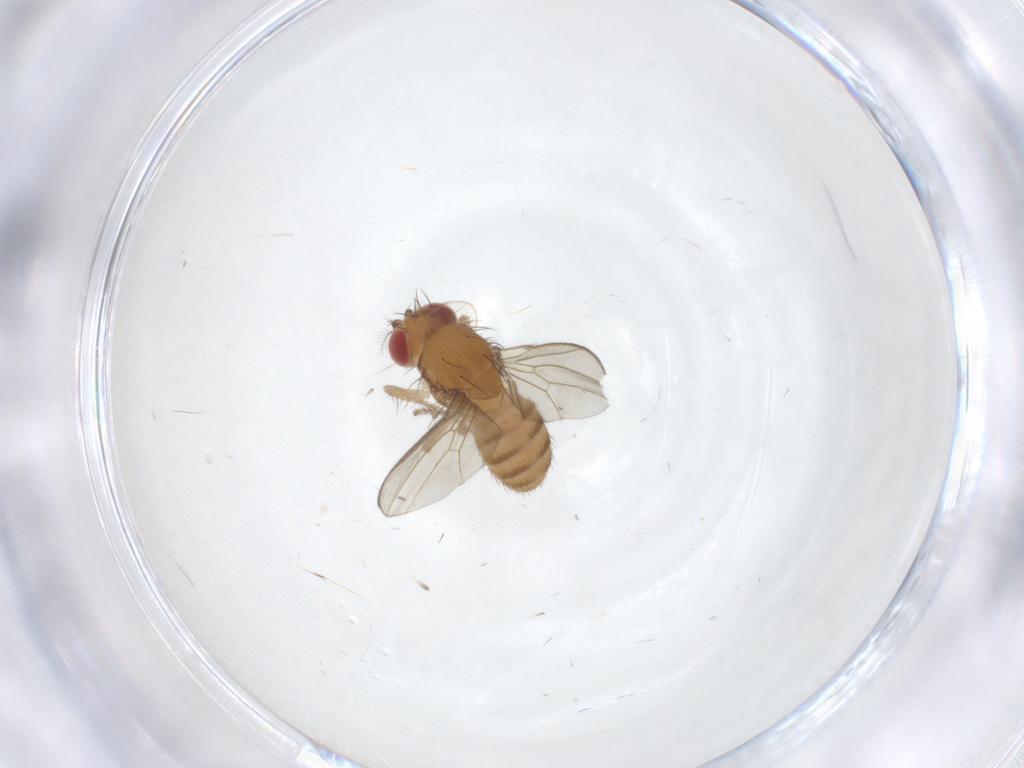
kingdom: Animalia
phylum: Arthropoda
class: Insecta
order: Diptera
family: Drosophilidae
